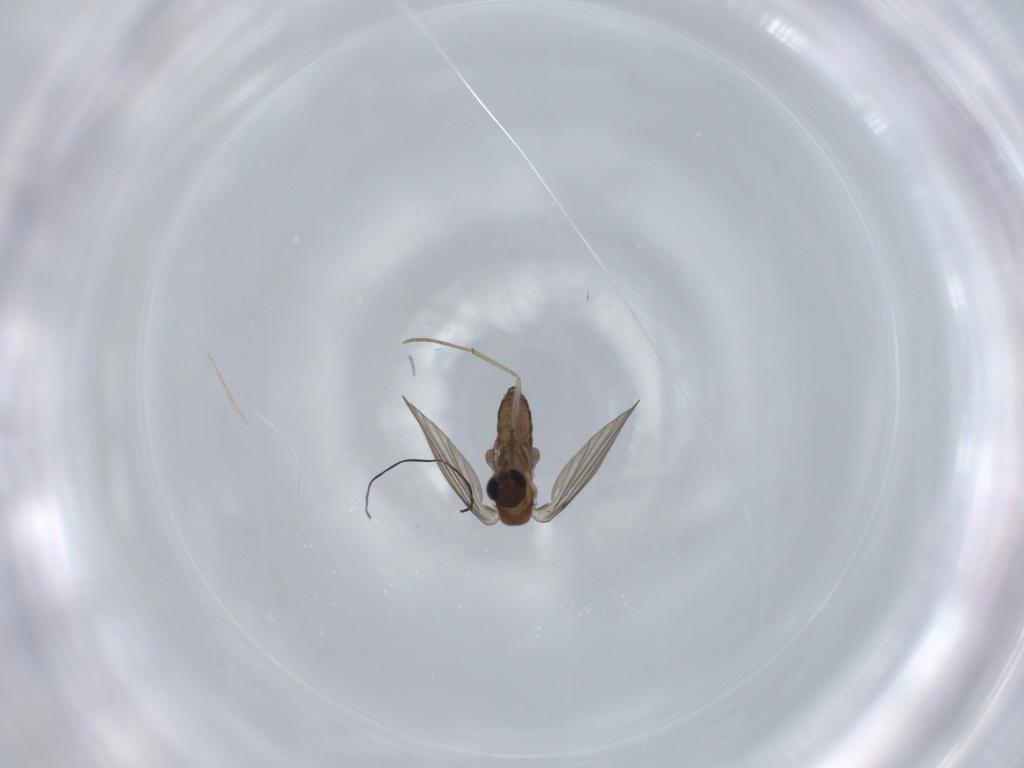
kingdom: Animalia
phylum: Arthropoda
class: Insecta
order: Diptera
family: Psychodidae
